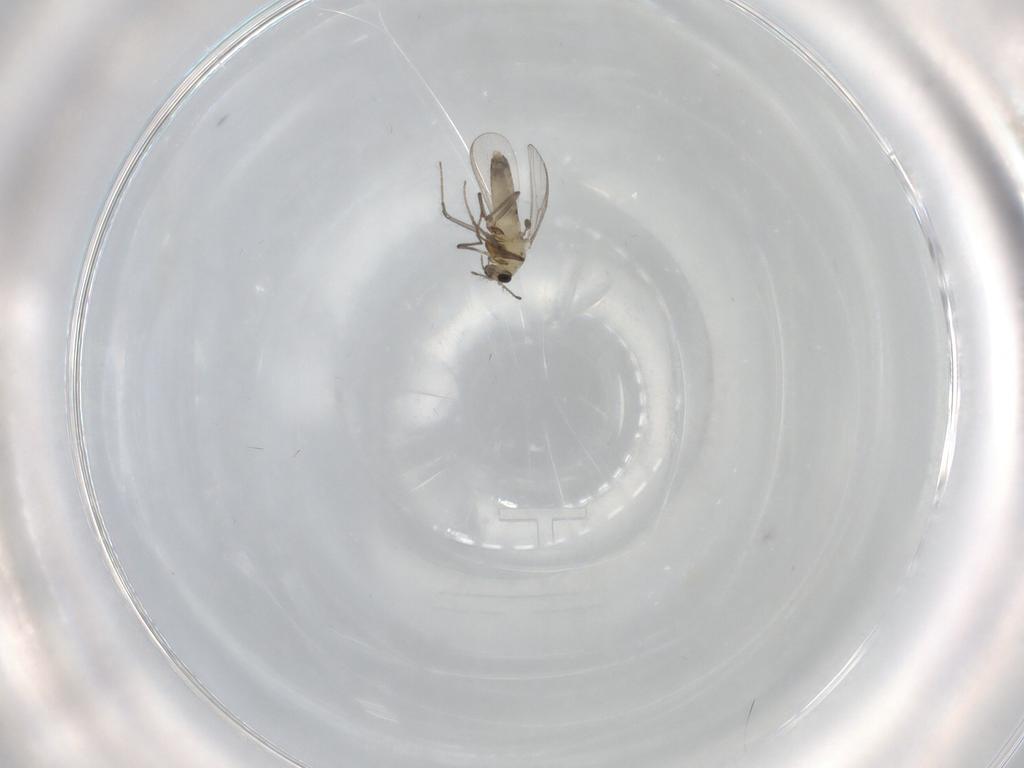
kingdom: Animalia
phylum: Arthropoda
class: Insecta
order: Diptera
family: Chironomidae
